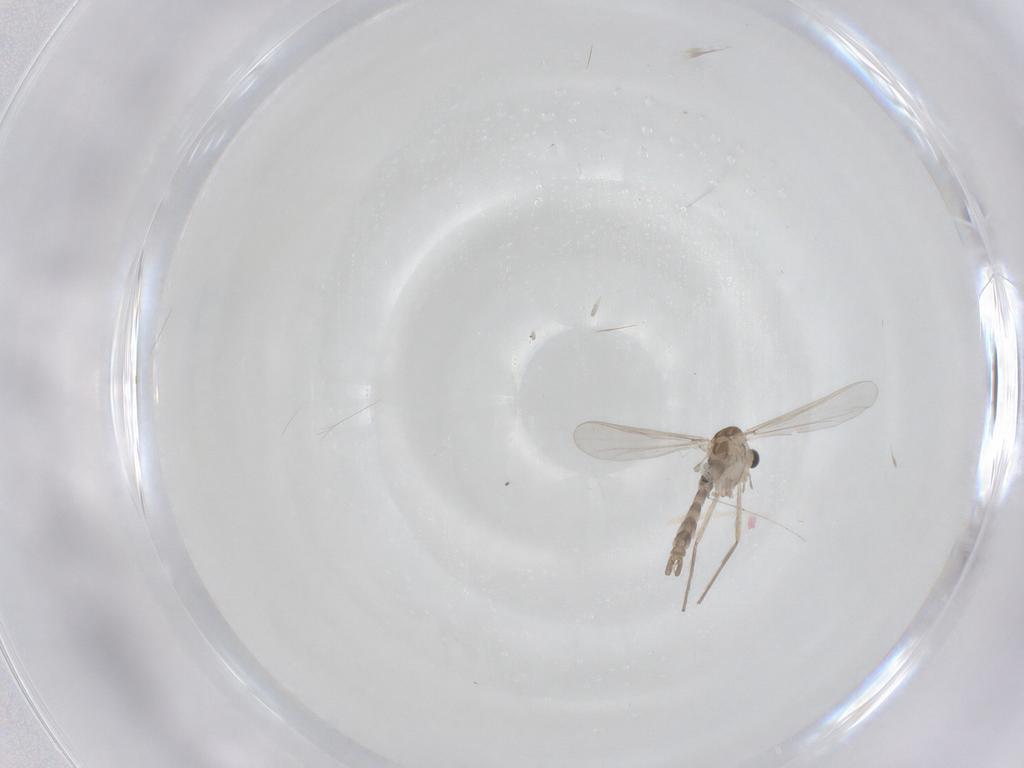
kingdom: Animalia
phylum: Arthropoda
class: Insecta
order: Diptera
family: Chironomidae
